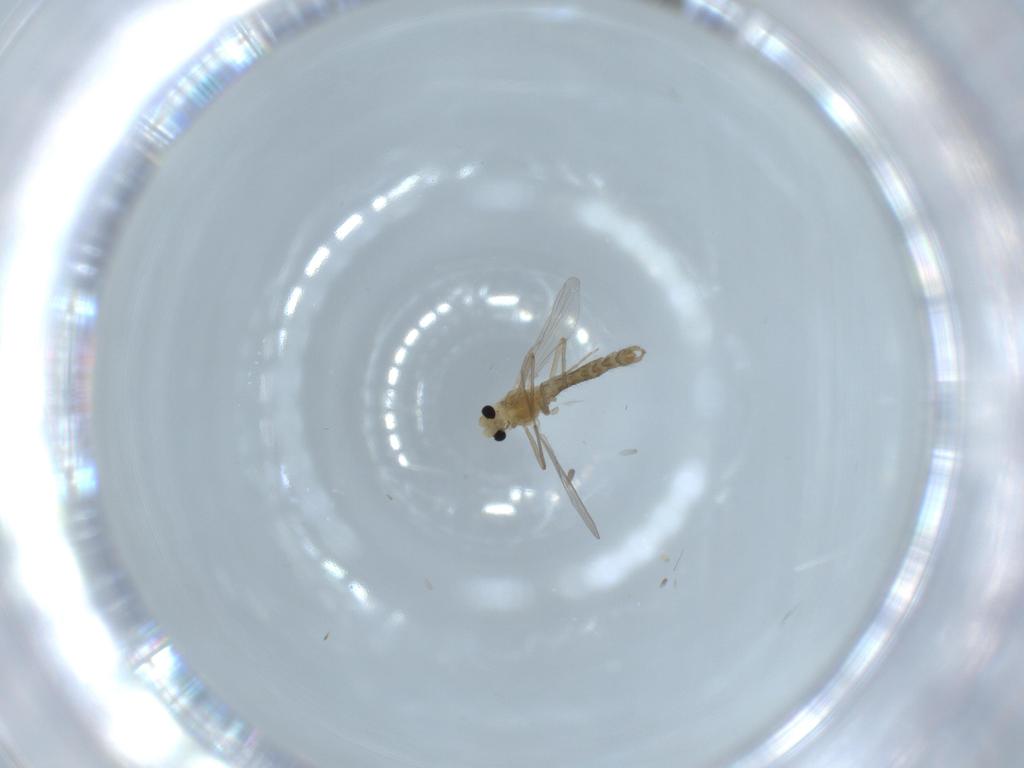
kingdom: Animalia
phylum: Arthropoda
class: Insecta
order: Diptera
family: Chironomidae
